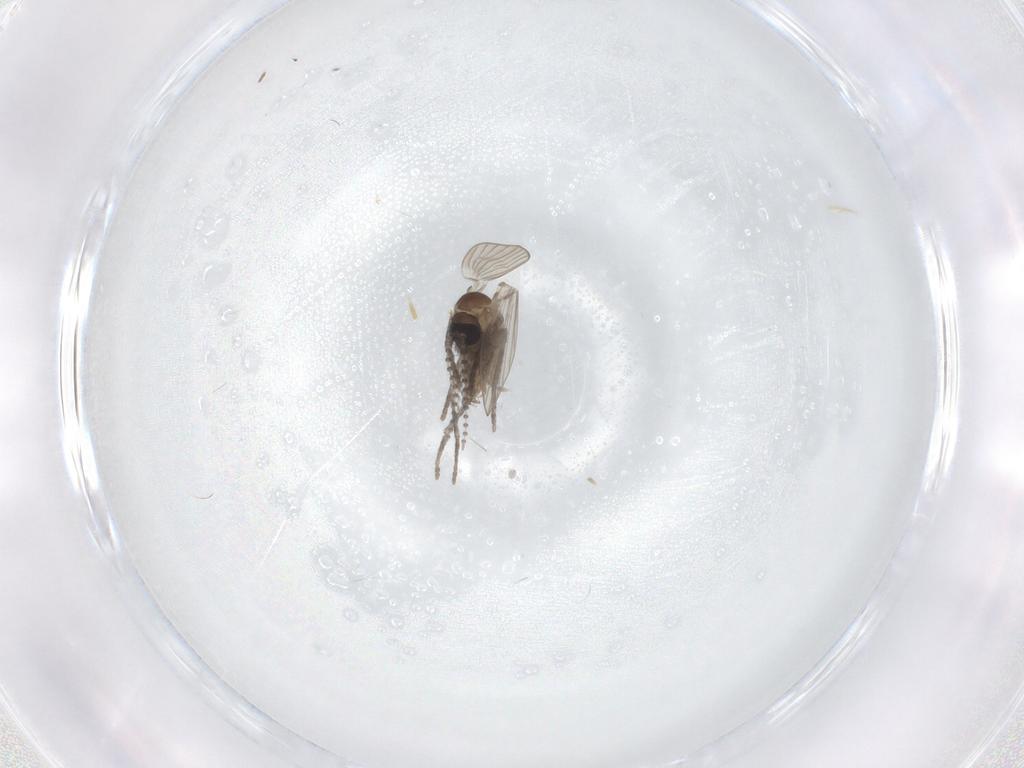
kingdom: Animalia
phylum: Arthropoda
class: Insecta
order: Diptera
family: Psychodidae
